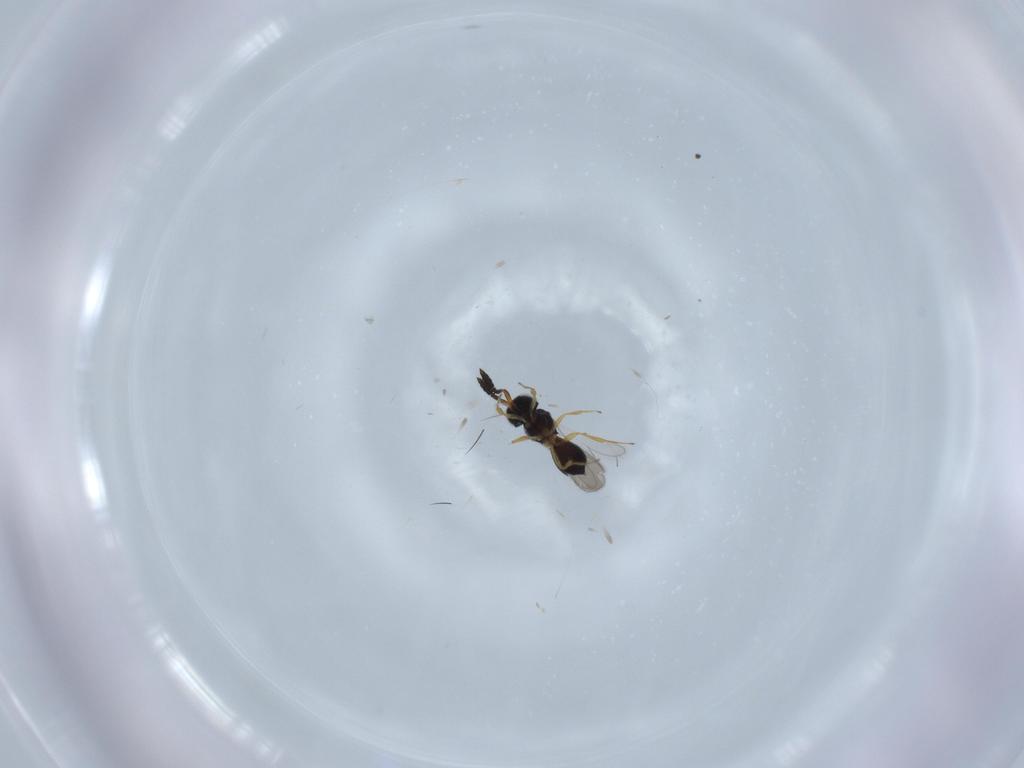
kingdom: Animalia
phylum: Arthropoda
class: Insecta
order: Hymenoptera
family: Scelionidae
